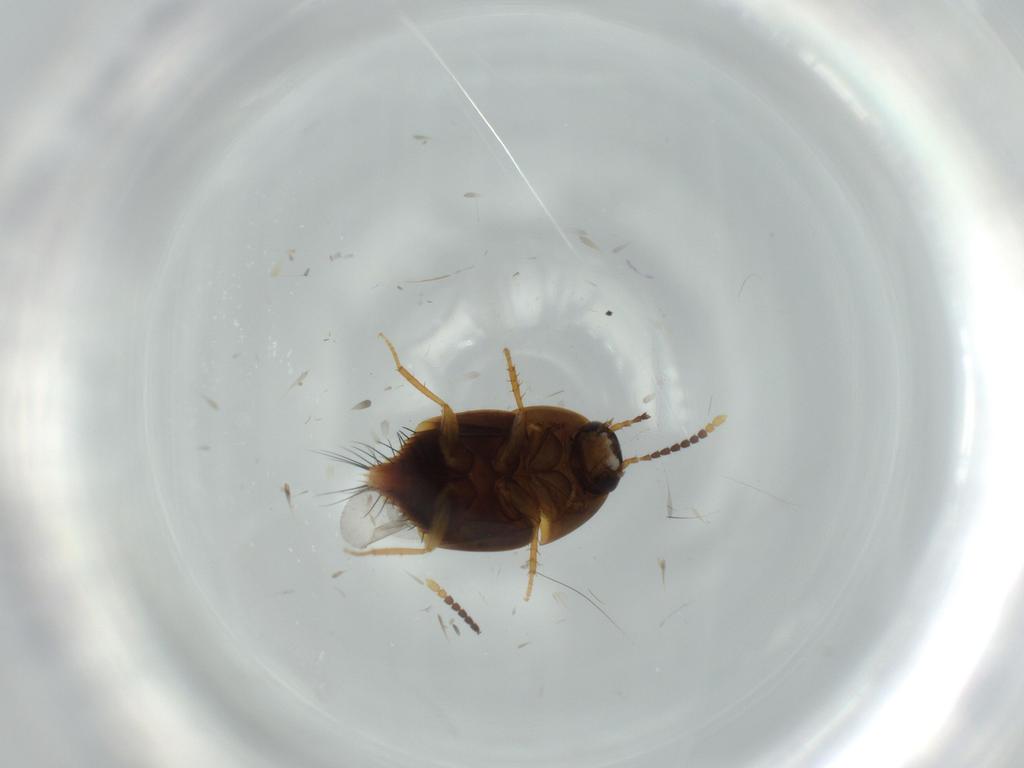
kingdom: Animalia
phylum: Arthropoda
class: Insecta
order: Coleoptera
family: Staphylinidae
